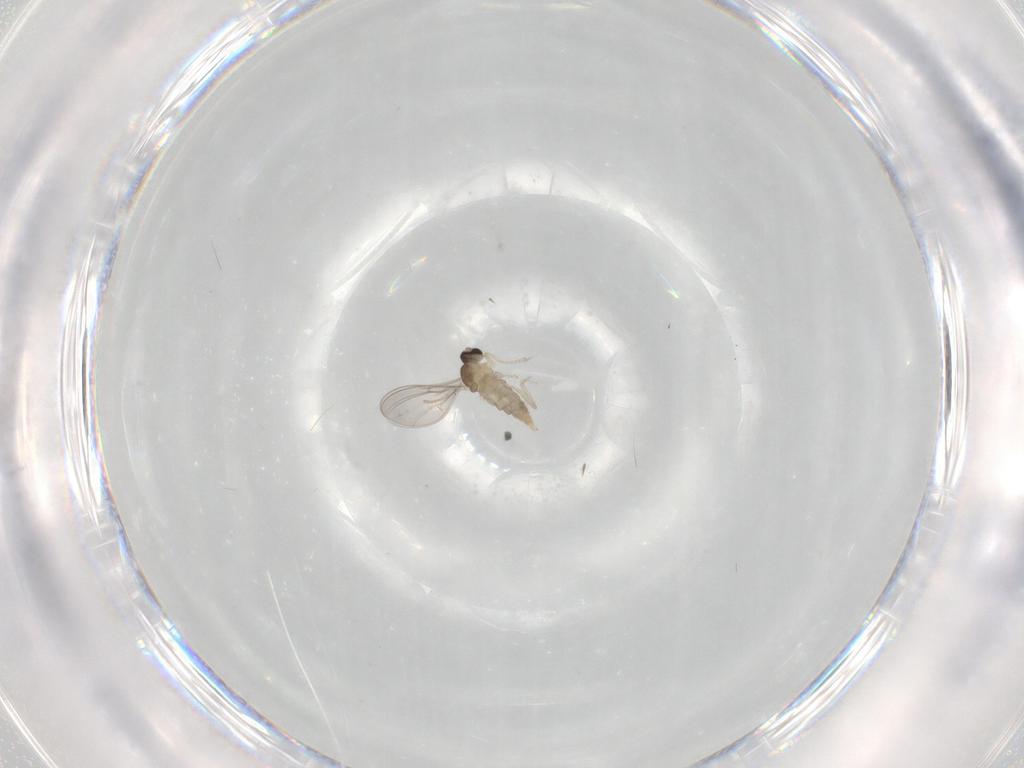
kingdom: Animalia
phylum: Arthropoda
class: Insecta
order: Diptera
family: Cecidomyiidae
